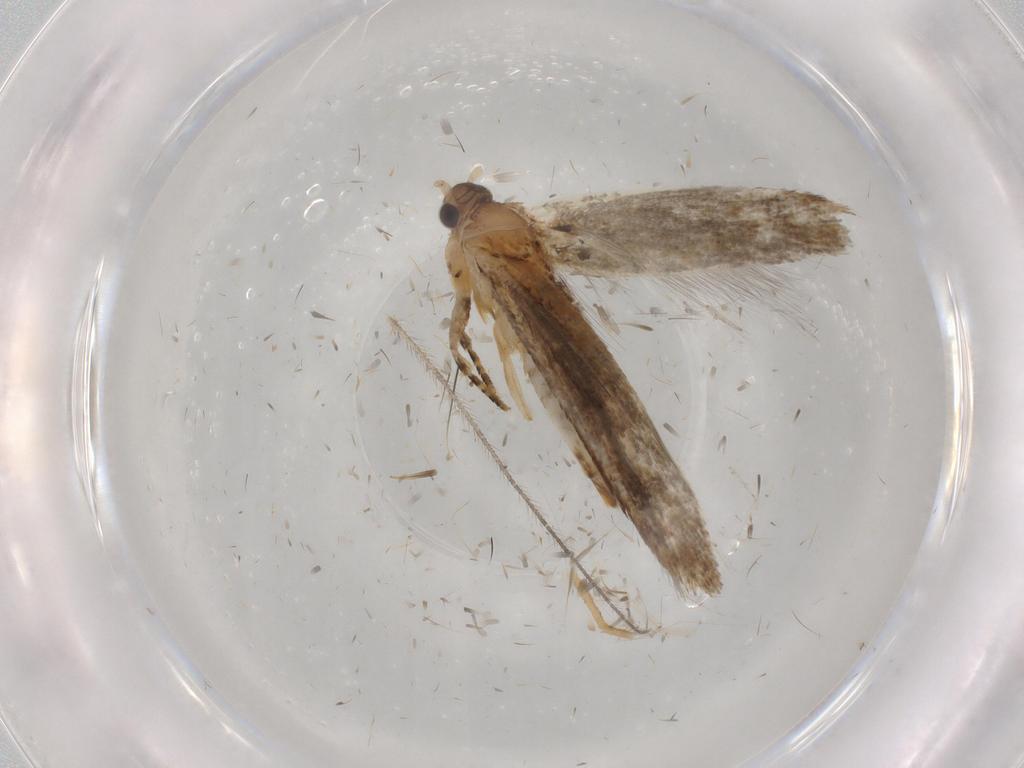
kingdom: Animalia
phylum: Arthropoda
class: Insecta
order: Lepidoptera
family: Tineidae
